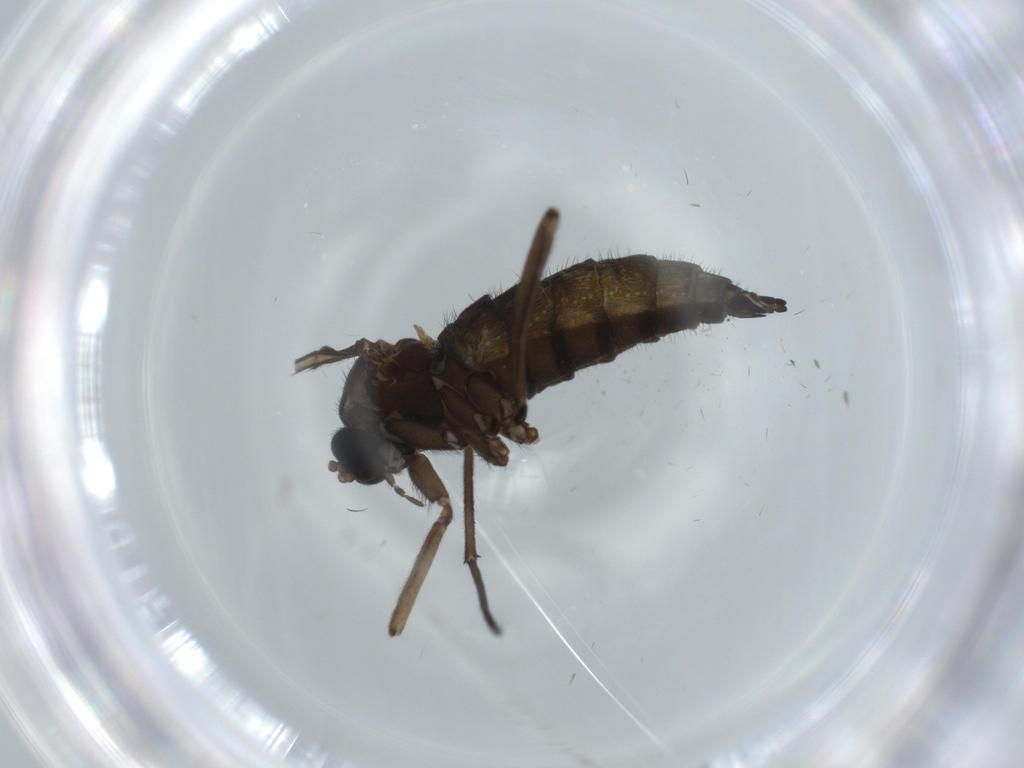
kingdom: Animalia
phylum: Arthropoda
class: Insecta
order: Diptera
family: Sciaridae
